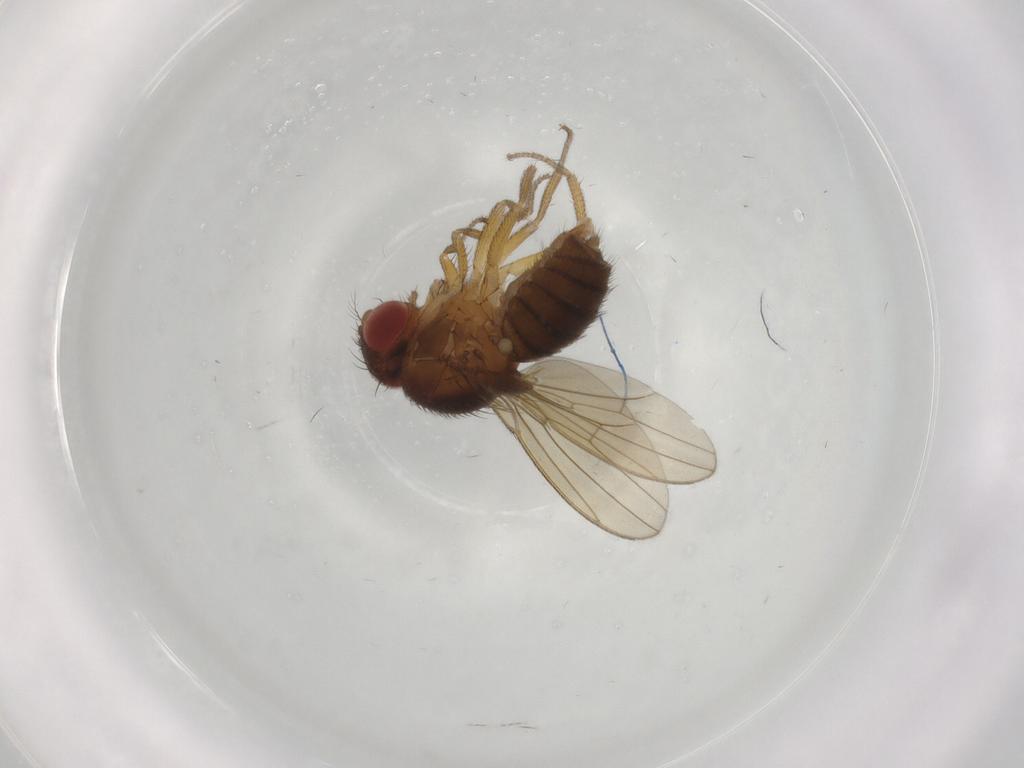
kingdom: Animalia
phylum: Arthropoda
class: Insecta
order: Diptera
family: Drosophilidae
